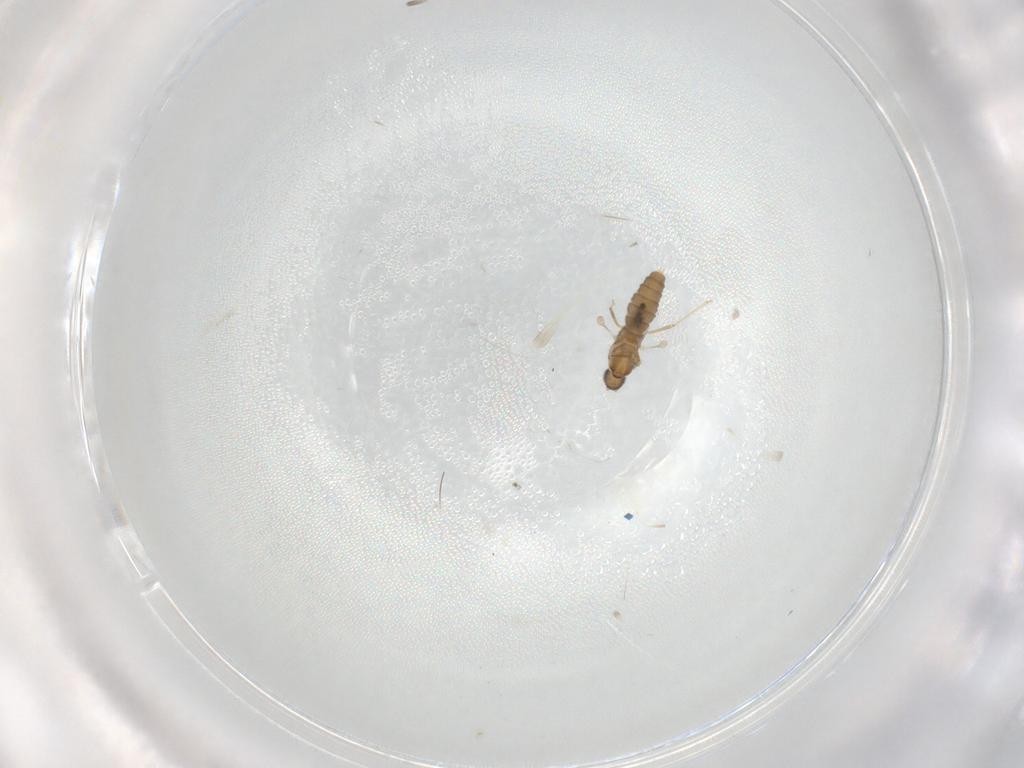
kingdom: Animalia
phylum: Arthropoda
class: Insecta
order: Diptera
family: Cecidomyiidae
